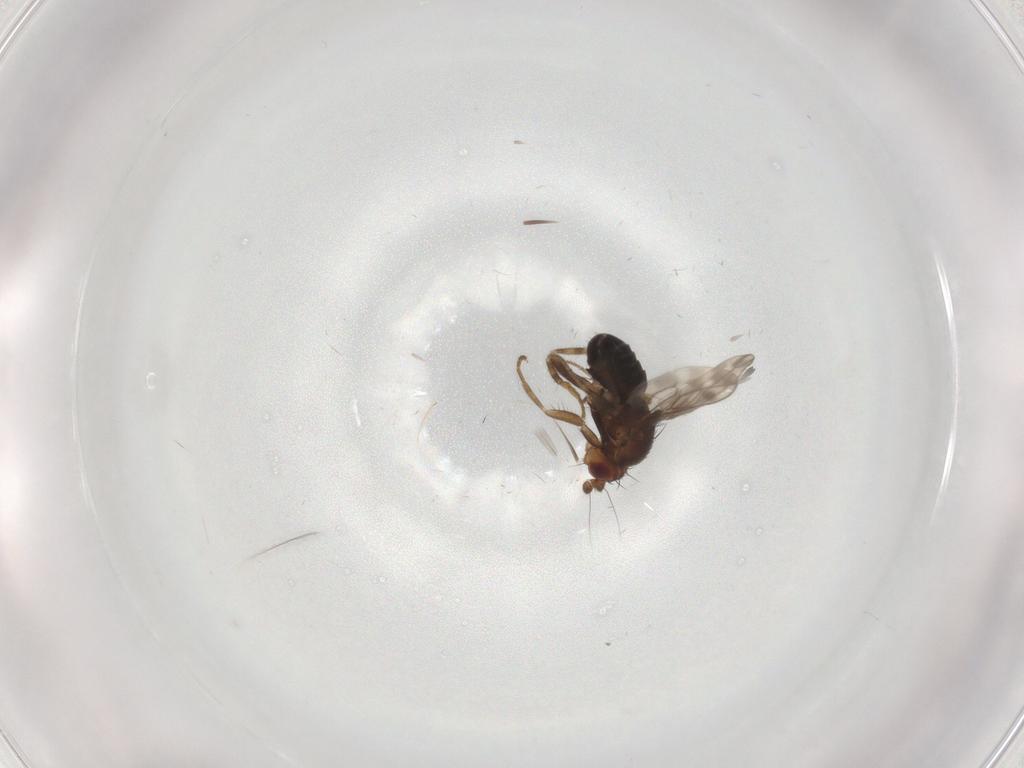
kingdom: Animalia
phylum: Arthropoda
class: Insecta
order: Diptera
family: Sphaeroceridae
